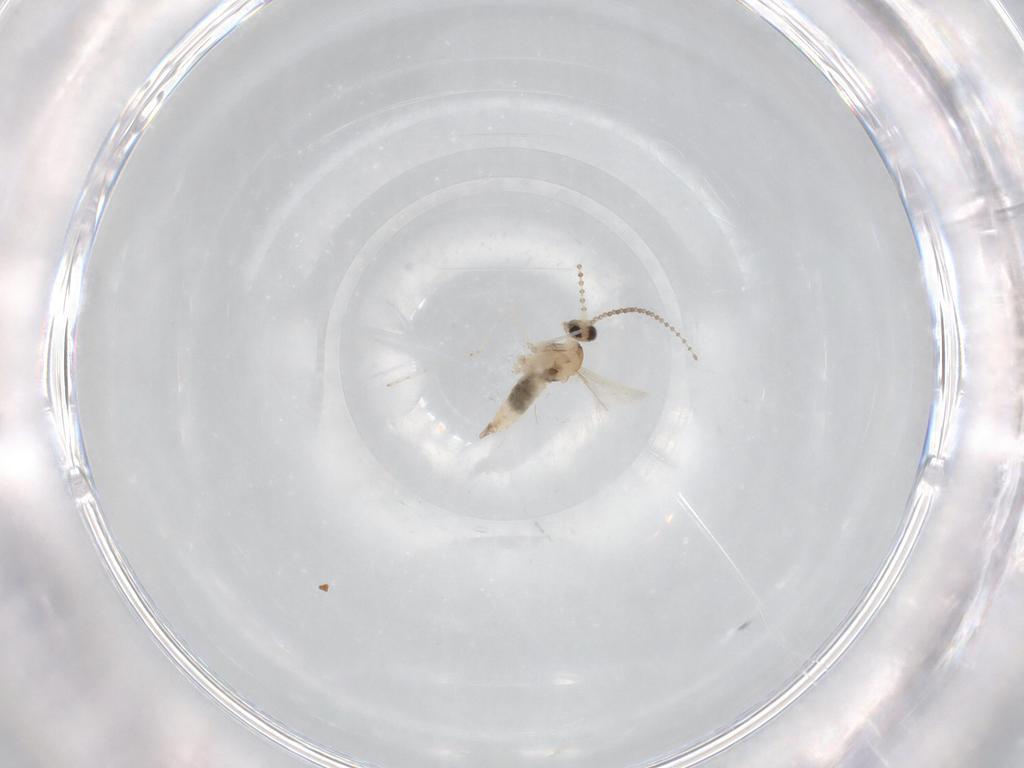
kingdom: Animalia
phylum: Arthropoda
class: Insecta
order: Diptera
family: Cecidomyiidae
